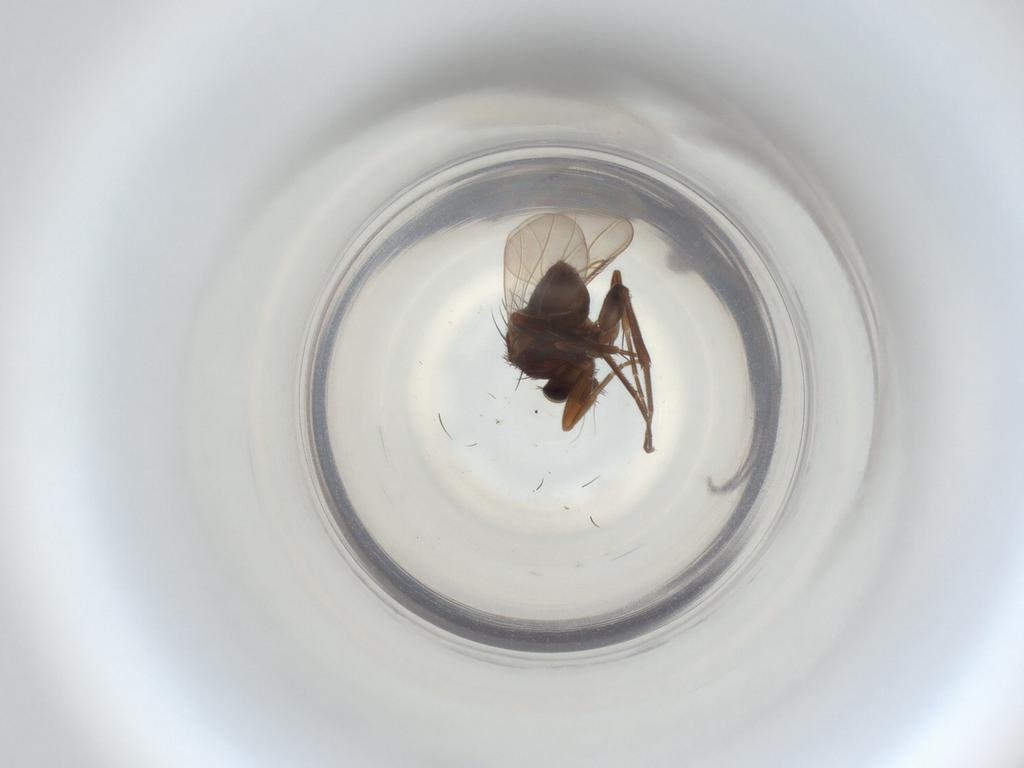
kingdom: Animalia
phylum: Arthropoda
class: Insecta
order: Diptera
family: Phoridae
